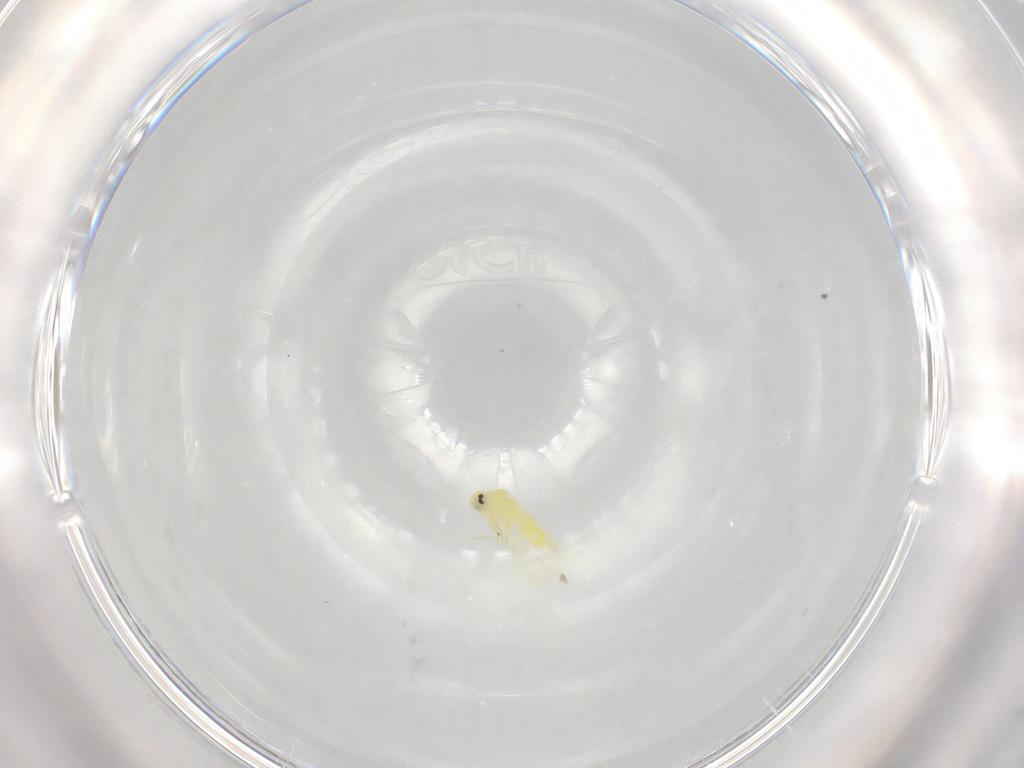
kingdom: Animalia
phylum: Arthropoda
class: Insecta
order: Hemiptera
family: Aleyrodidae
